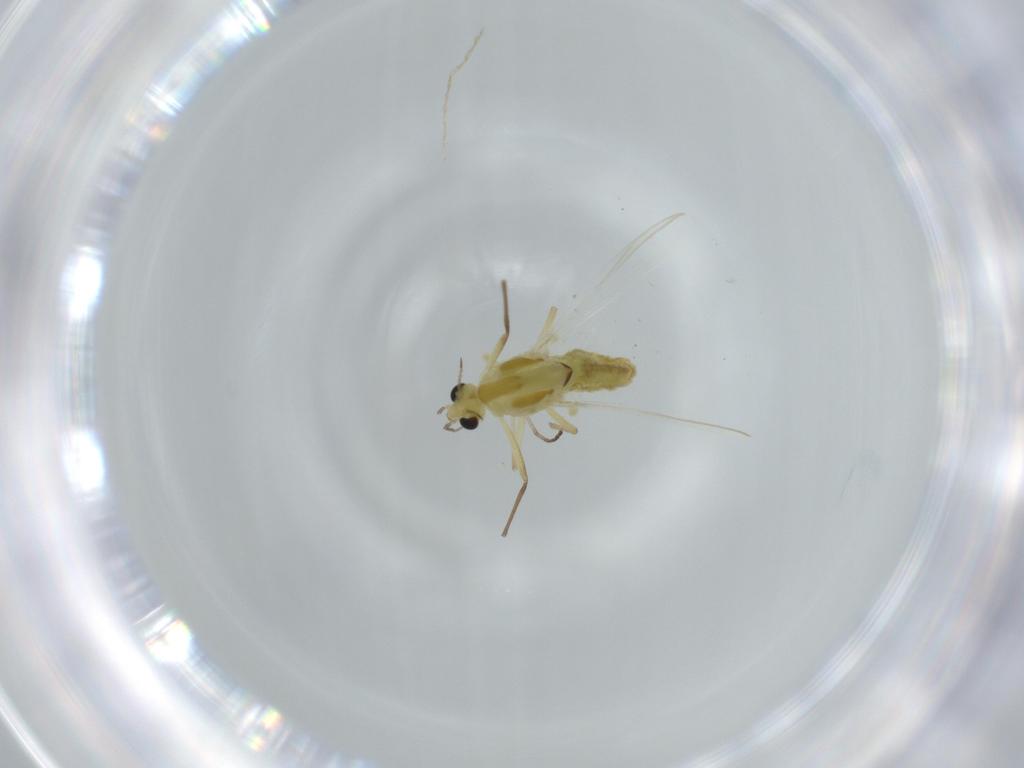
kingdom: Animalia
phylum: Arthropoda
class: Insecta
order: Diptera
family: Chironomidae
